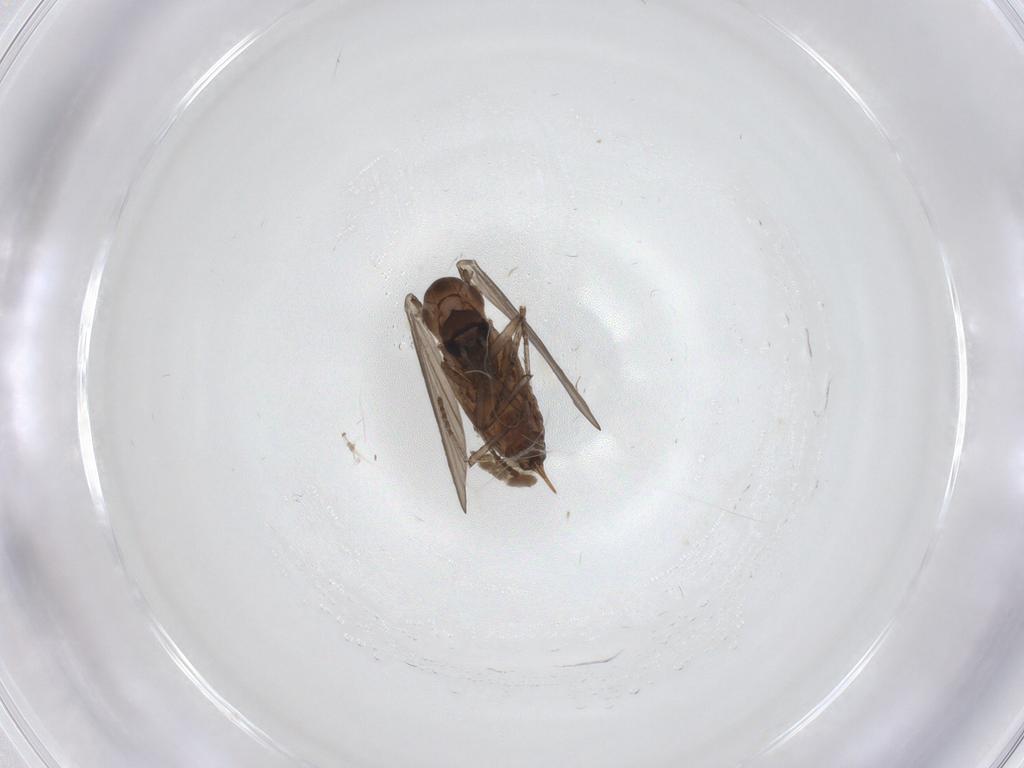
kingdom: Animalia
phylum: Arthropoda
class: Insecta
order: Diptera
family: Psychodidae
